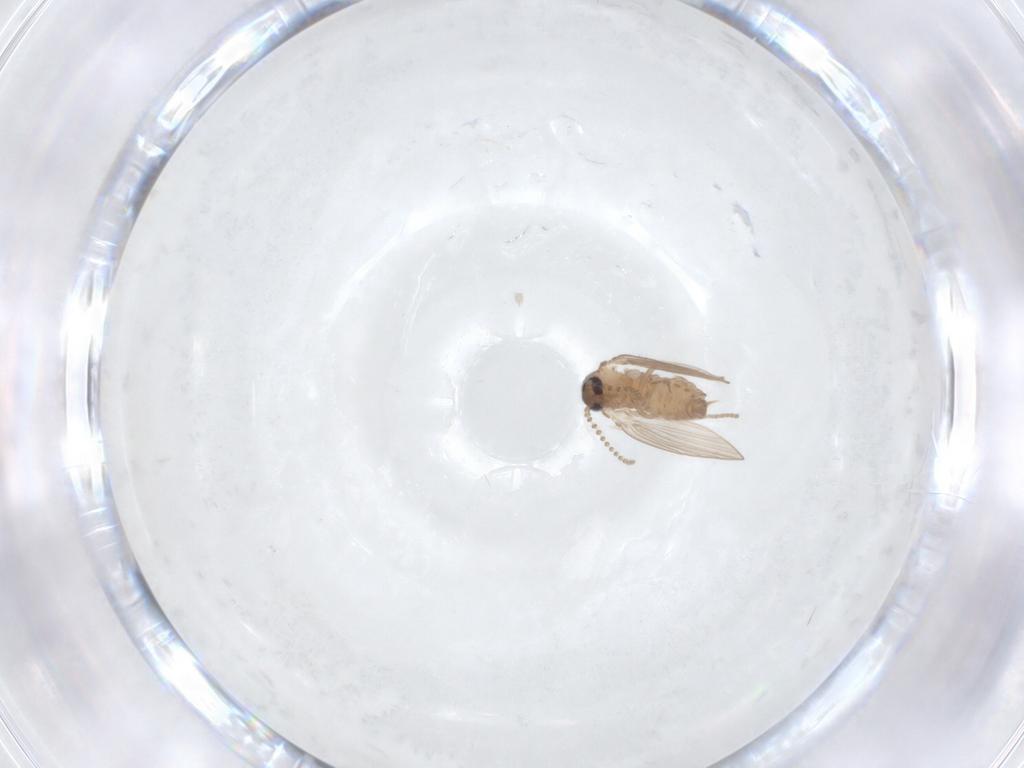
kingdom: Animalia
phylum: Arthropoda
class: Insecta
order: Diptera
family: Psychodidae
